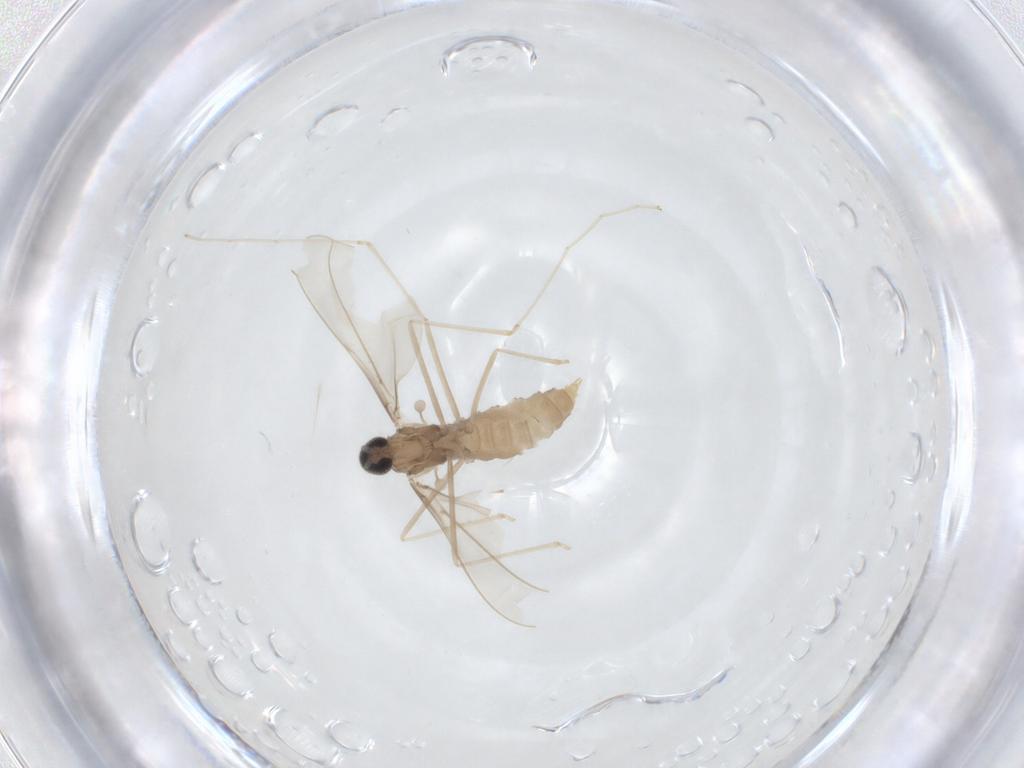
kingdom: Animalia
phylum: Arthropoda
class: Insecta
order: Diptera
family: Cecidomyiidae
